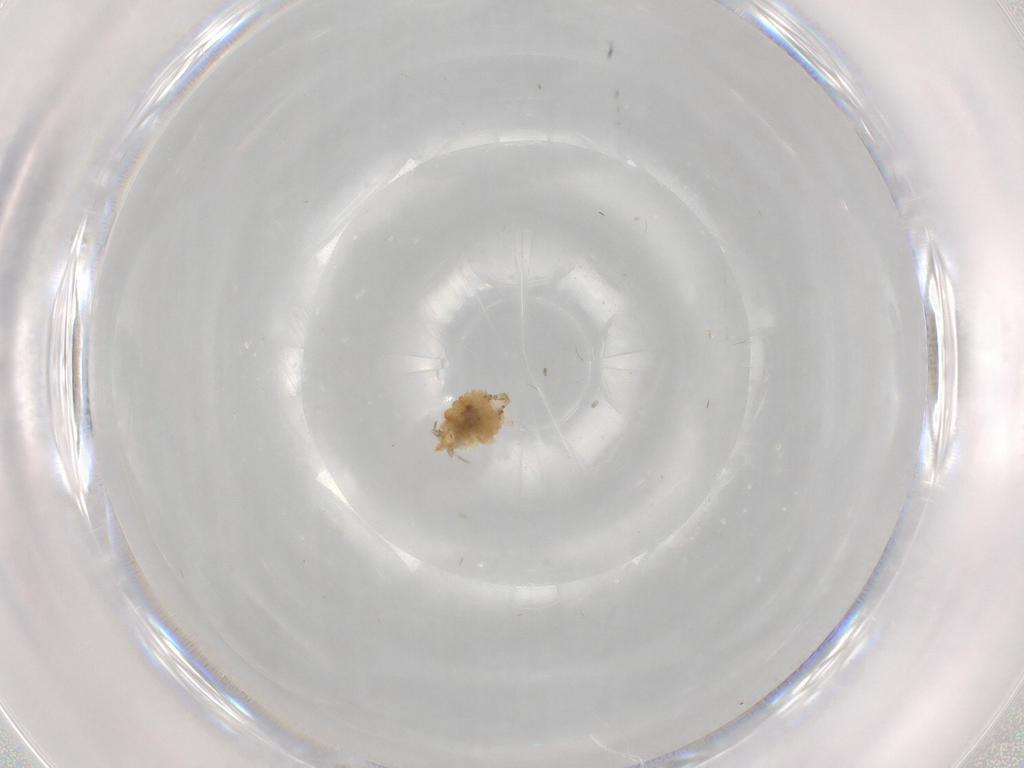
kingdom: Animalia
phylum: Arthropoda
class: Insecta
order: Neuroptera
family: Coniopterygidae
